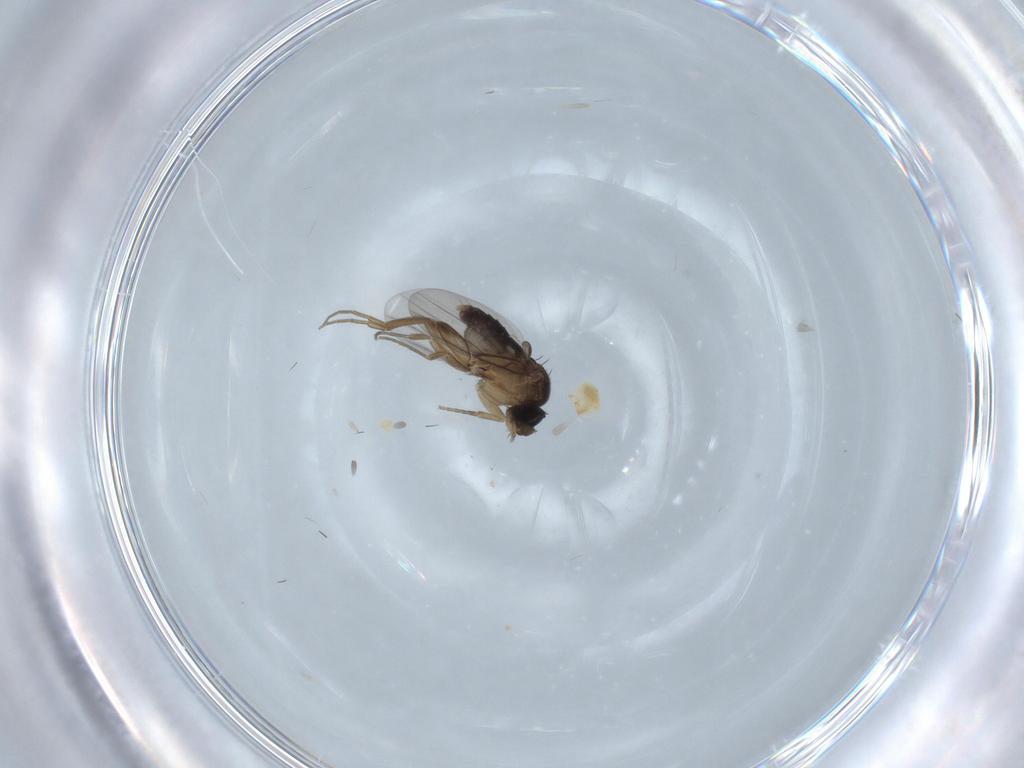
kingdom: Animalia
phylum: Arthropoda
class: Insecta
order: Diptera
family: Phoridae
